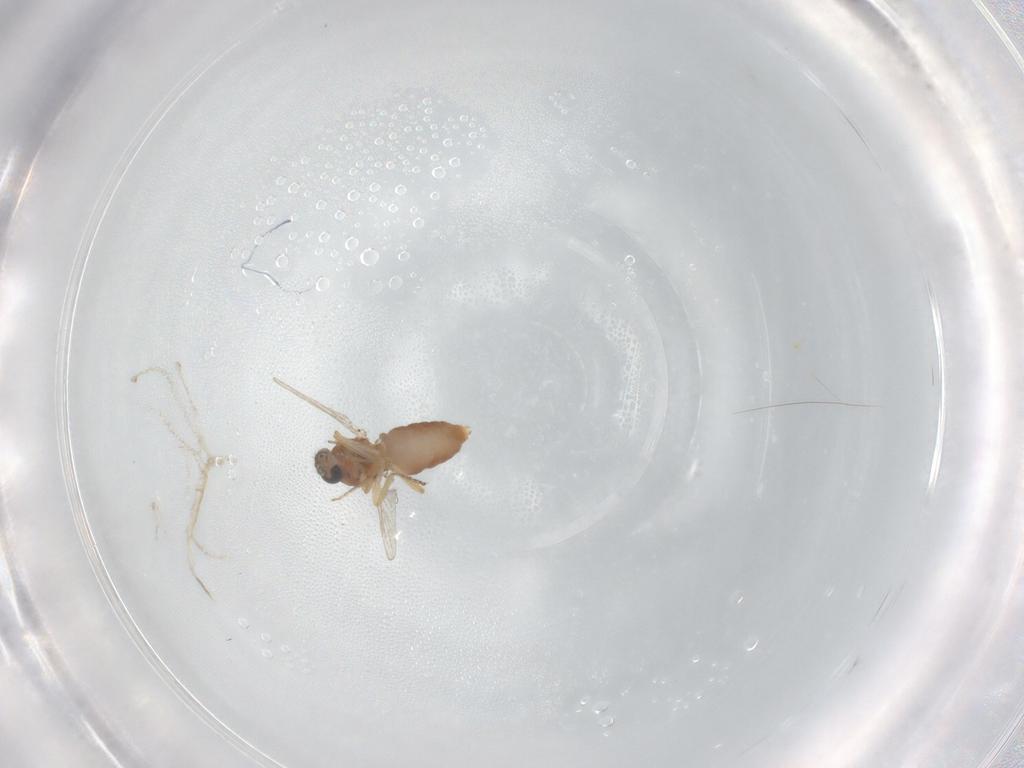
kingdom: Animalia
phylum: Arthropoda
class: Insecta
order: Diptera
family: Ceratopogonidae
